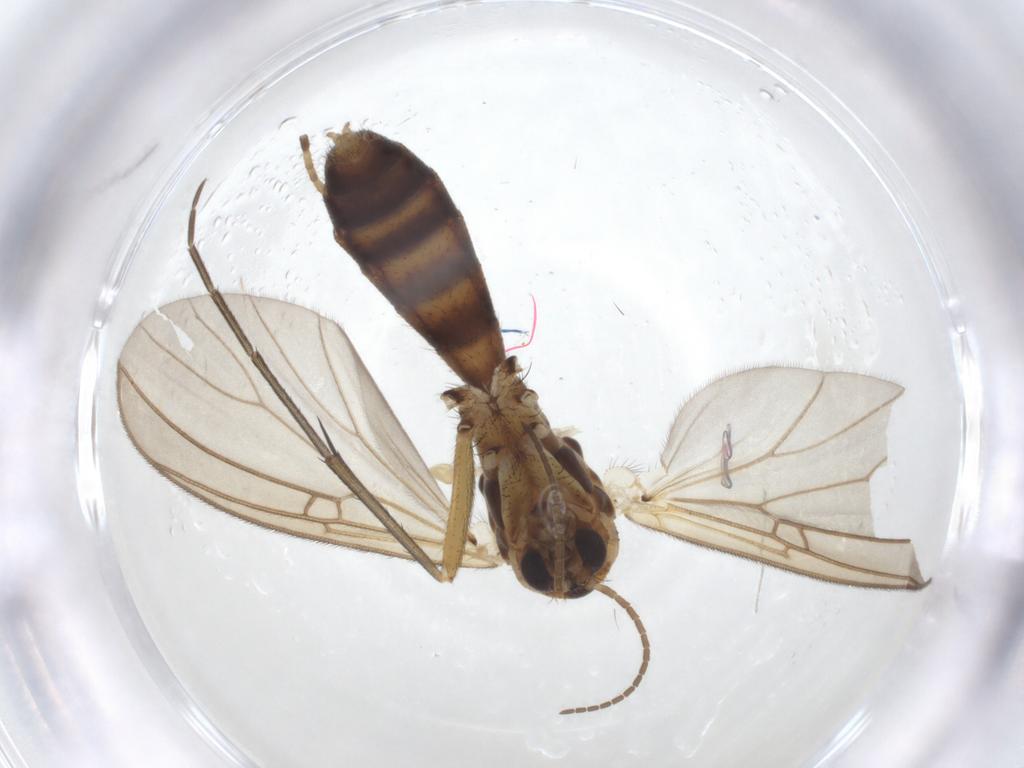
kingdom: Animalia
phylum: Arthropoda
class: Insecta
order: Diptera
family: Mycetophilidae
